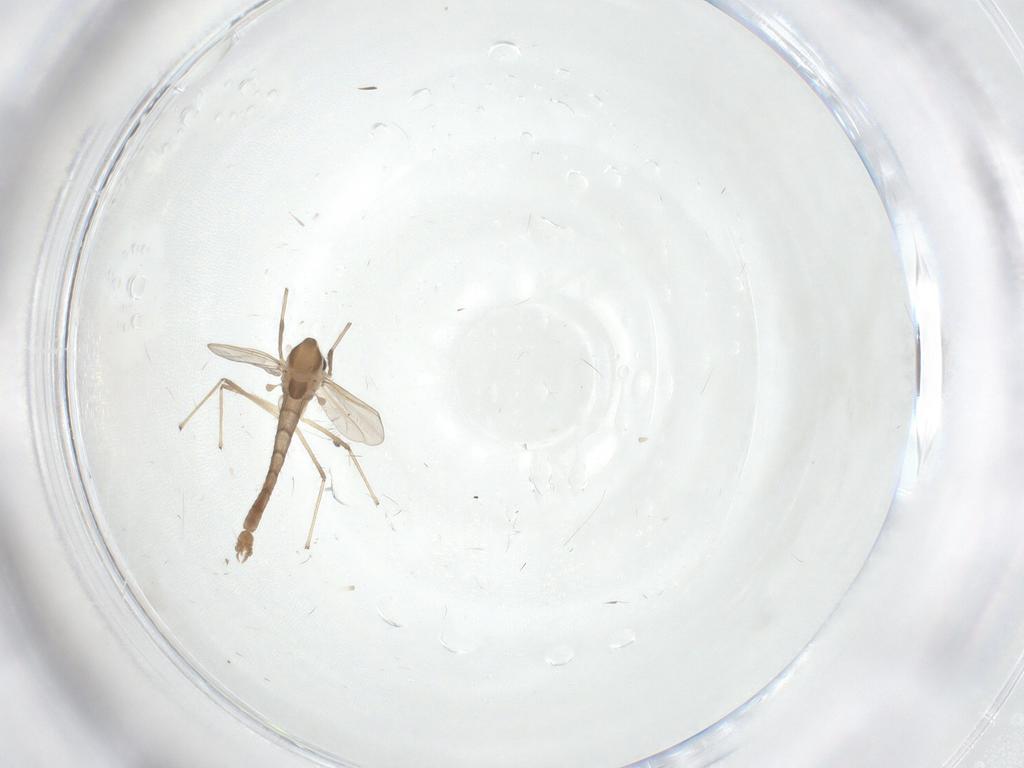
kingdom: Animalia
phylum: Arthropoda
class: Insecta
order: Diptera
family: Chironomidae
